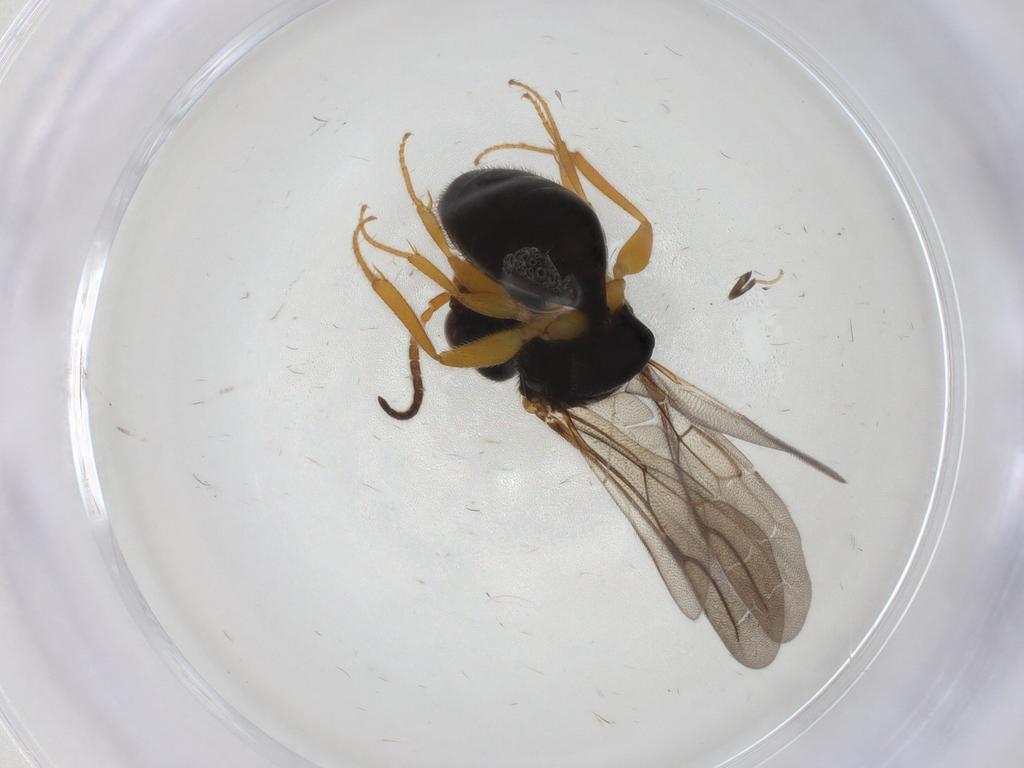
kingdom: Animalia
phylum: Arthropoda
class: Insecta
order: Hymenoptera
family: Bethylidae
